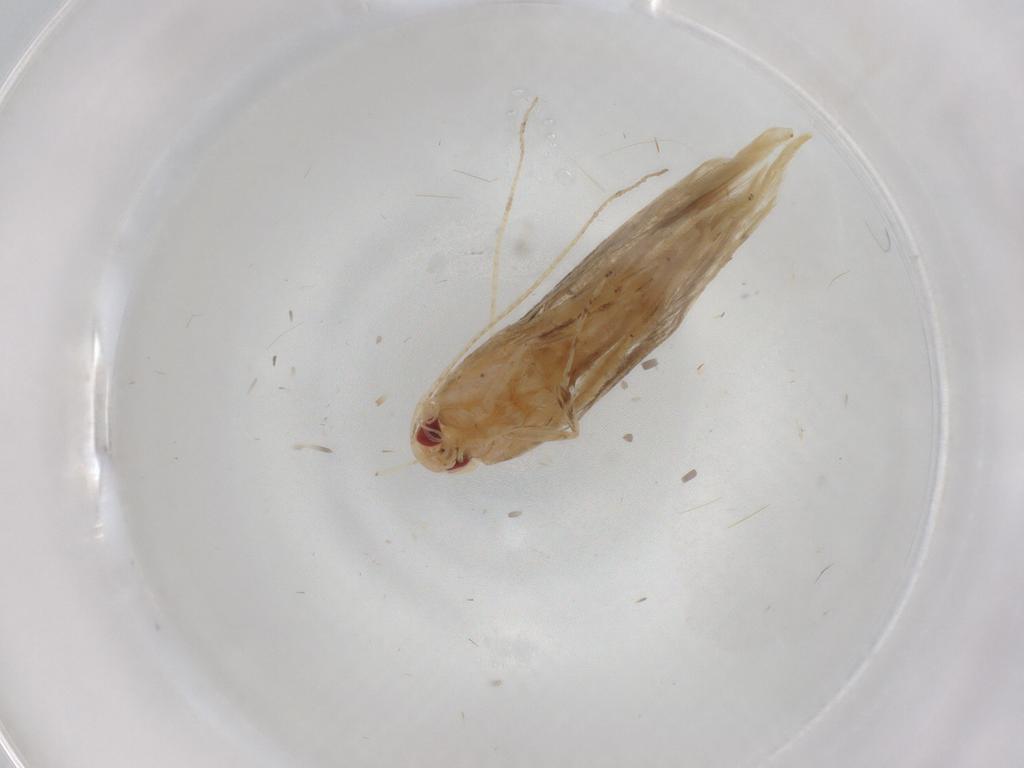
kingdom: Animalia
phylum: Arthropoda
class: Insecta
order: Lepidoptera
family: Cosmopterigidae
